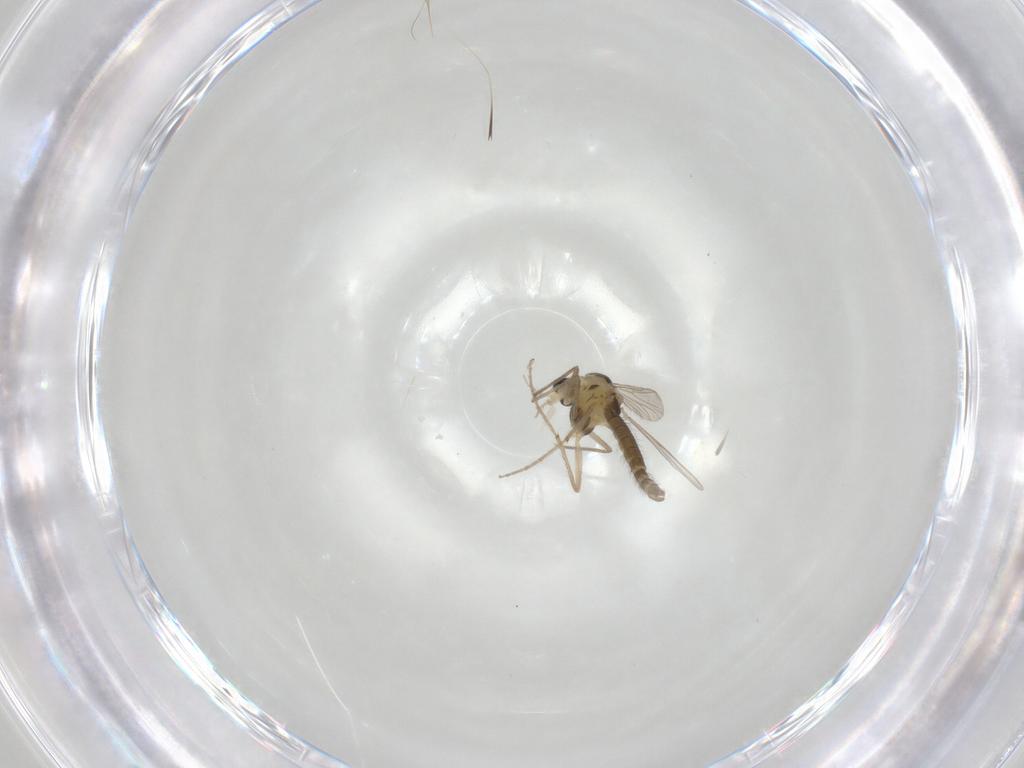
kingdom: Animalia
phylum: Arthropoda
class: Insecta
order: Diptera
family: Chironomidae
